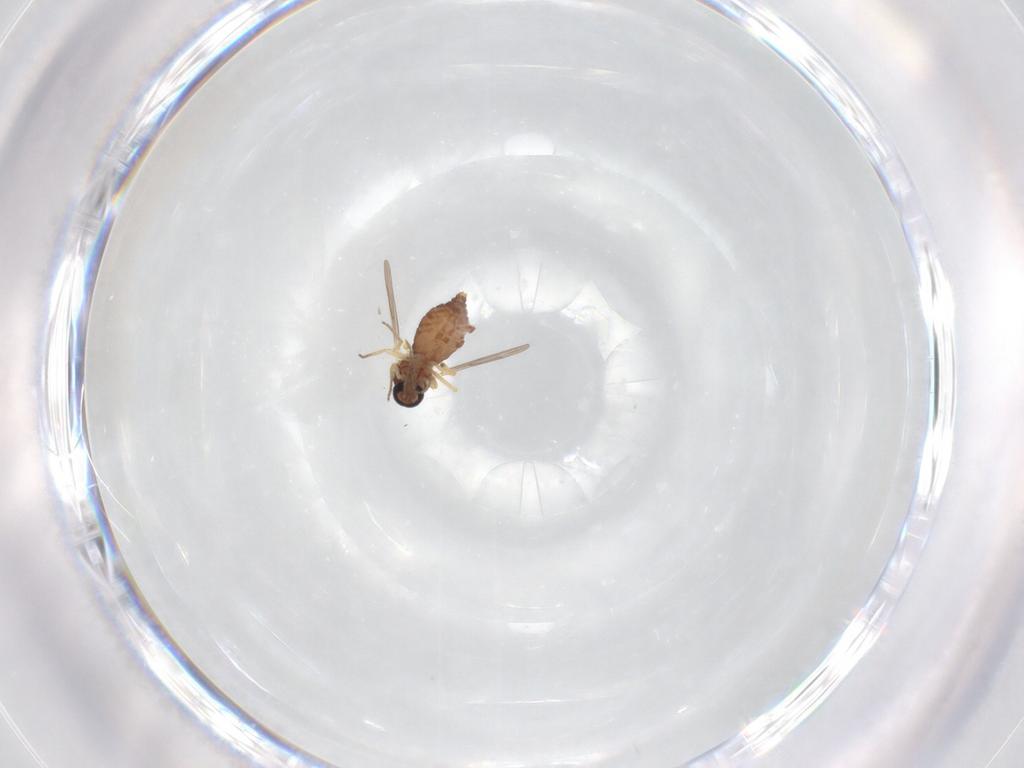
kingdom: Animalia
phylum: Arthropoda
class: Insecta
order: Diptera
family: Ceratopogonidae
